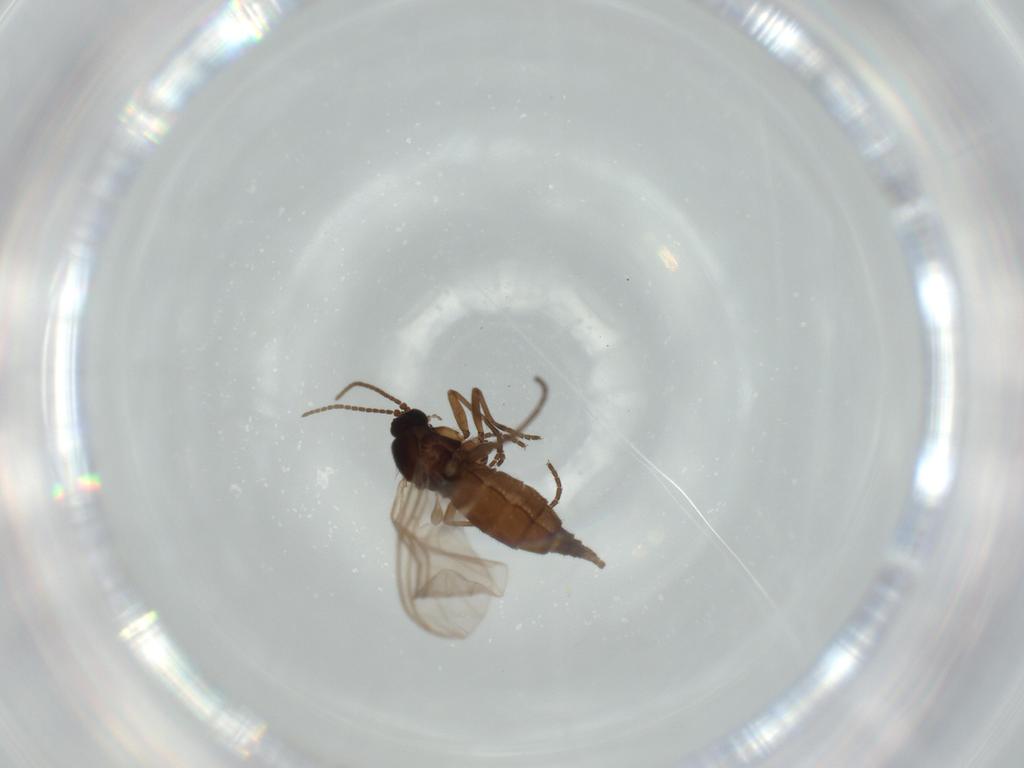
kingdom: Animalia
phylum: Arthropoda
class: Insecta
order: Diptera
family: Sciaridae
